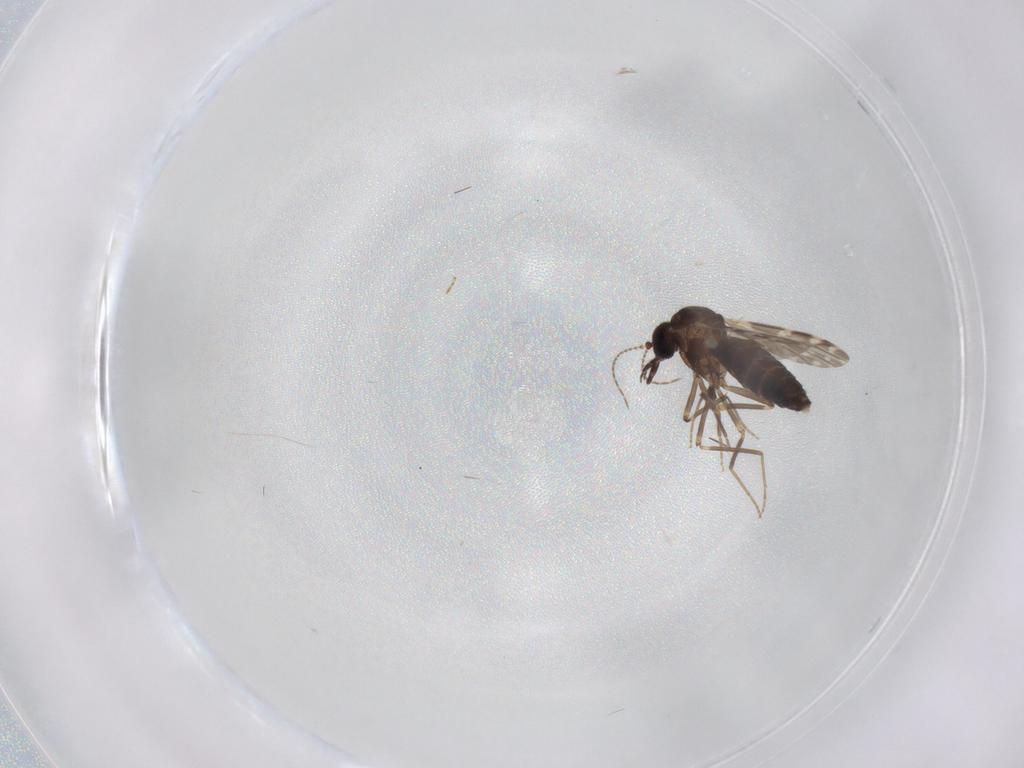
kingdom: Animalia
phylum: Arthropoda
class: Insecta
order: Diptera
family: Ceratopogonidae
